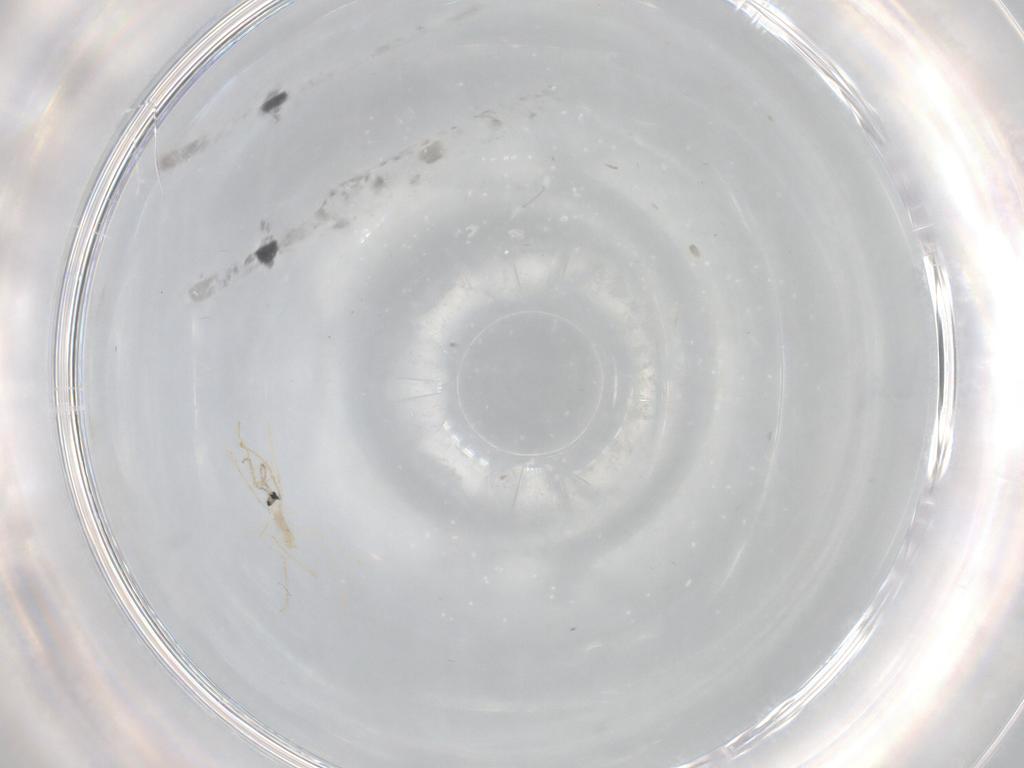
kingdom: Animalia
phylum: Arthropoda
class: Insecta
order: Diptera
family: Cecidomyiidae
